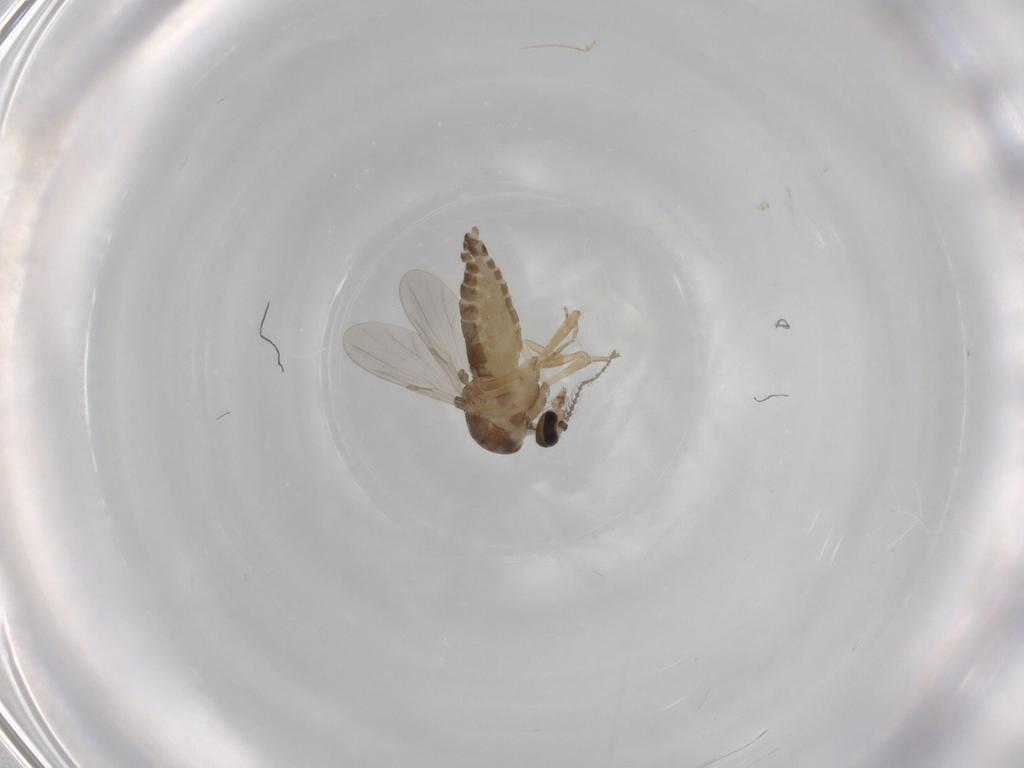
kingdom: Animalia
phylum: Arthropoda
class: Insecta
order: Diptera
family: Ceratopogonidae
